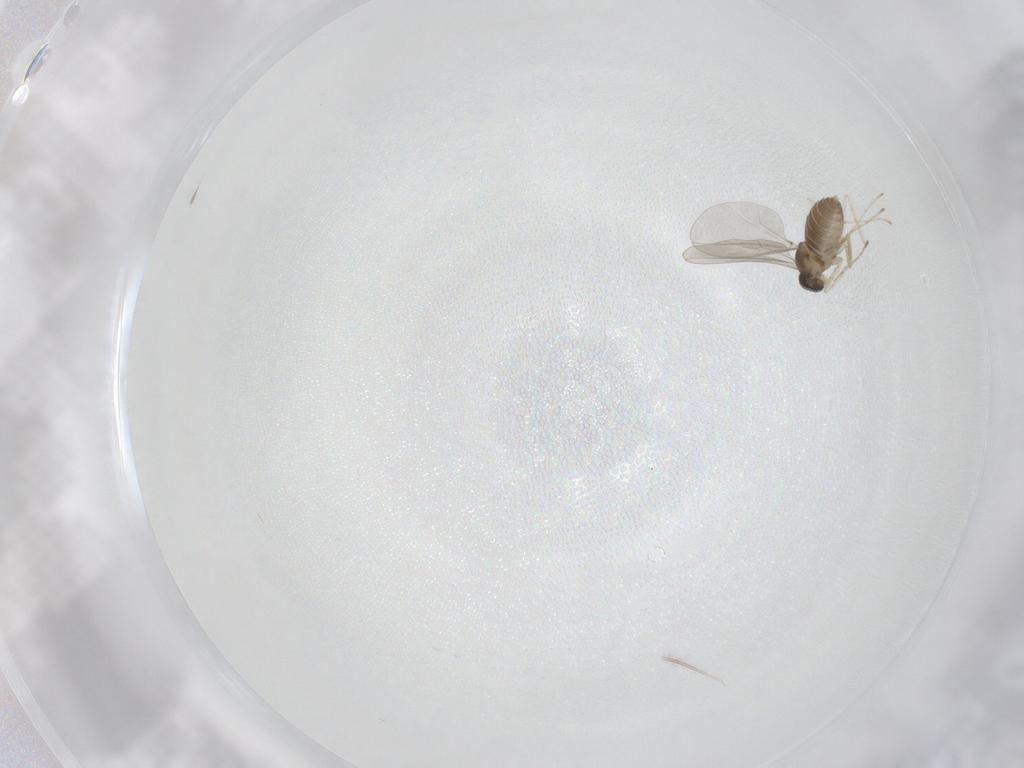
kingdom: Animalia
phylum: Arthropoda
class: Insecta
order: Diptera
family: Cecidomyiidae
